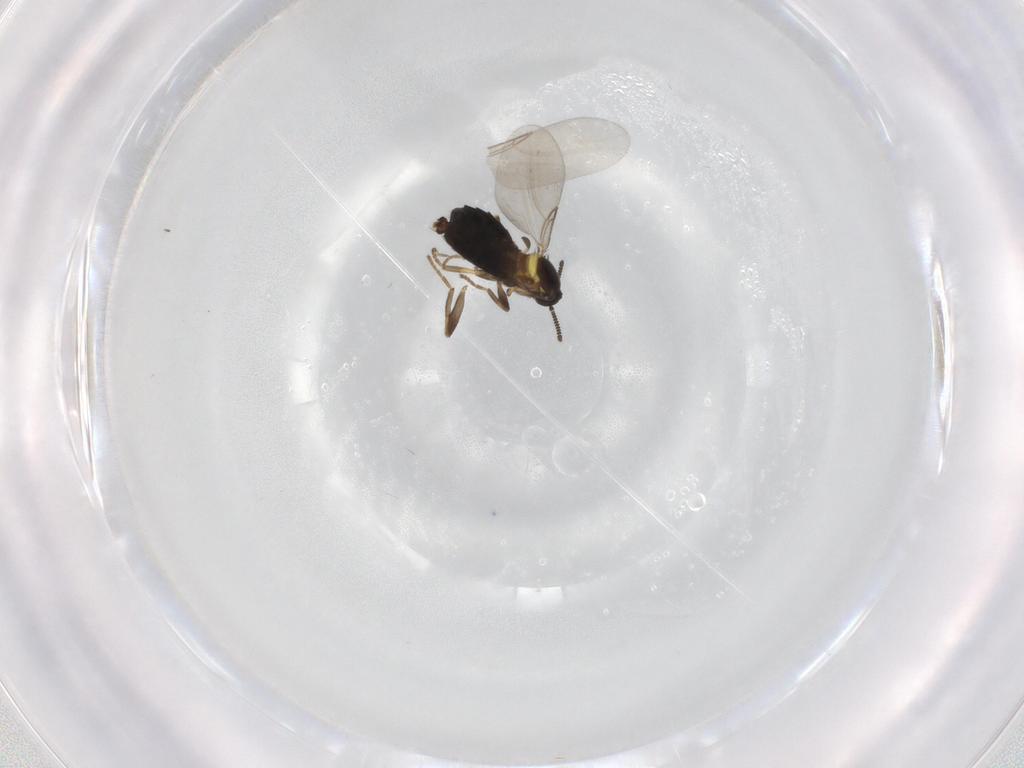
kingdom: Animalia
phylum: Arthropoda
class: Insecta
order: Diptera
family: Scatopsidae
